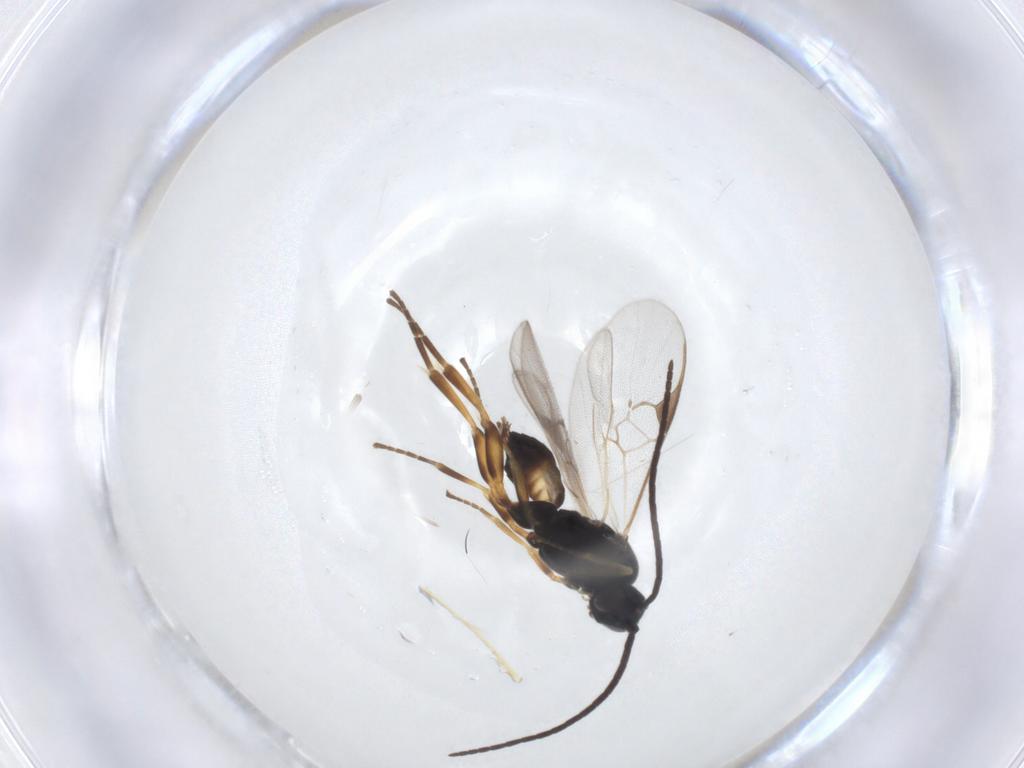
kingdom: Animalia
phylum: Arthropoda
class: Insecta
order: Hymenoptera
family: Braconidae
